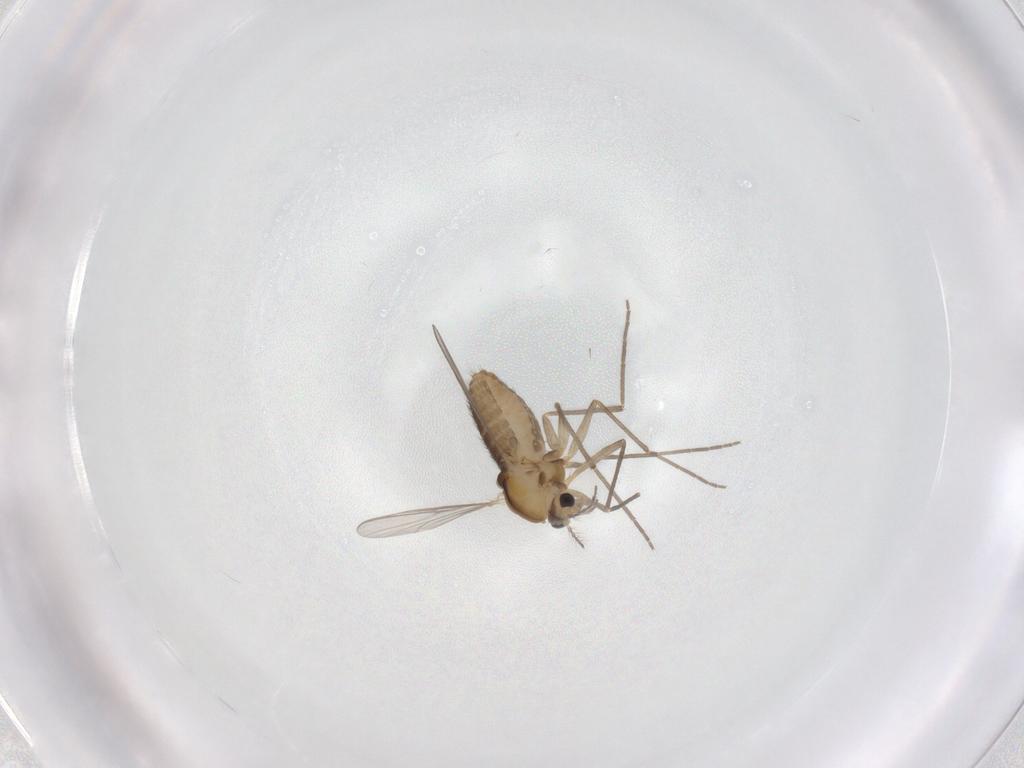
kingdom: Animalia
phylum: Arthropoda
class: Insecta
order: Diptera
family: Chironomidae
